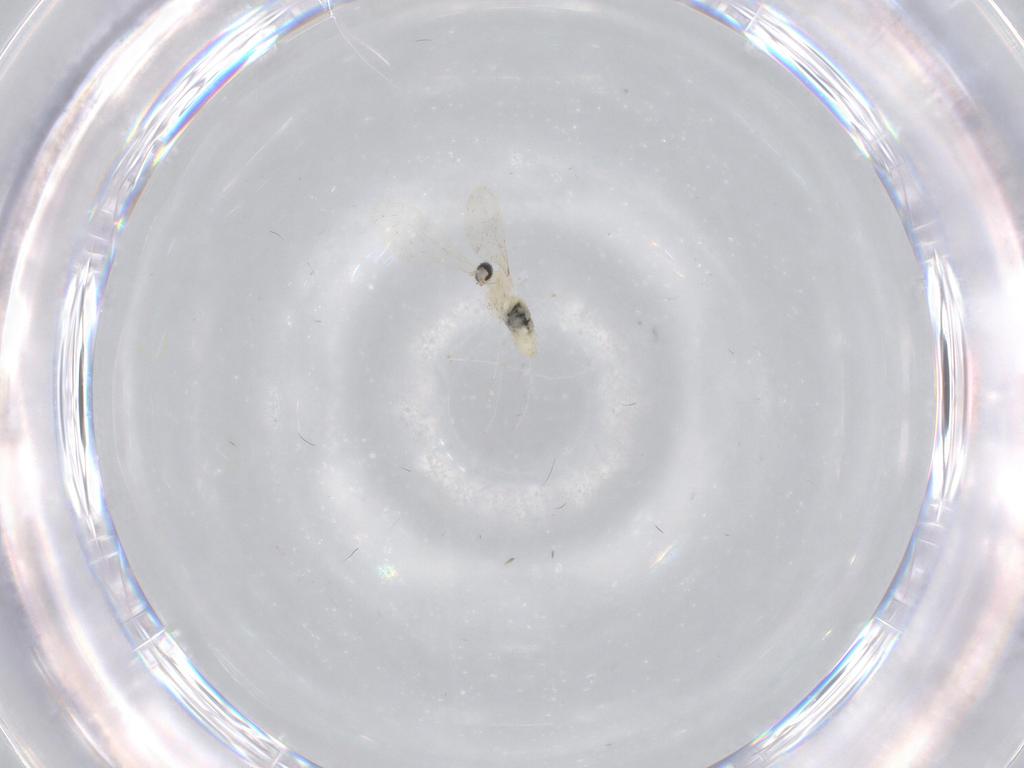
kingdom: Animalia
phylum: Arthropoda
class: Insecta
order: Diptera
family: Cecidomyiidae
